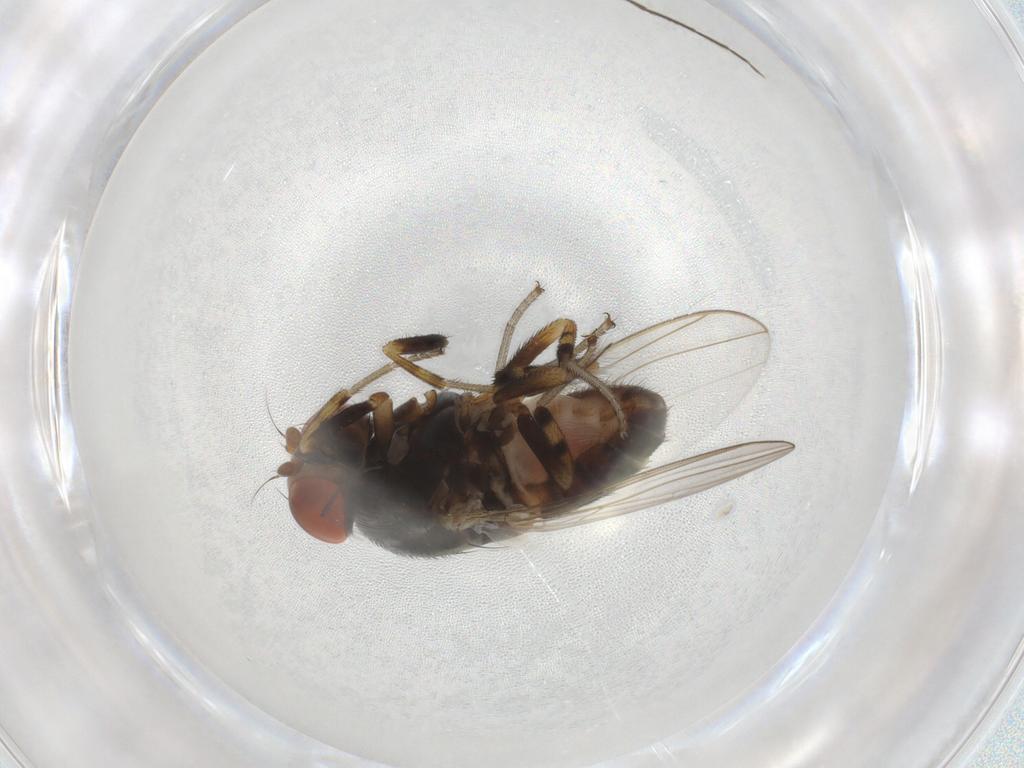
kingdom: Animalia
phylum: Arthropoda
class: Insecta
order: Diptera
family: Drosophilidae
